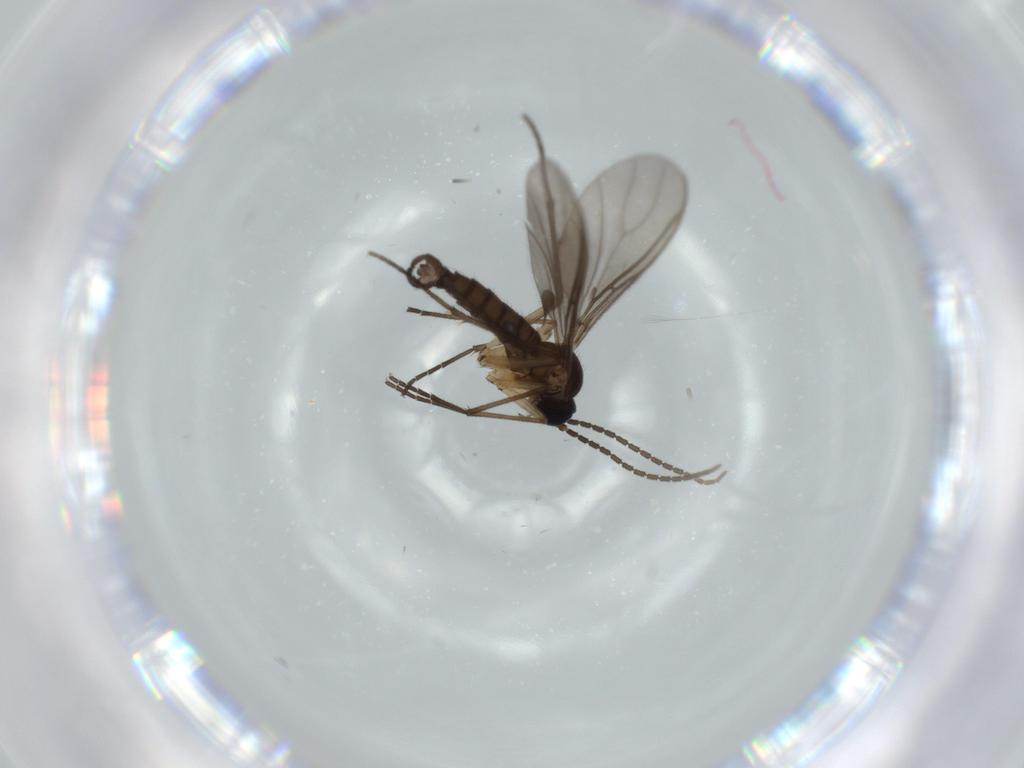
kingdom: Animalia
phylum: Arthropoda
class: Insecta
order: Diptera
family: Sciaridae
